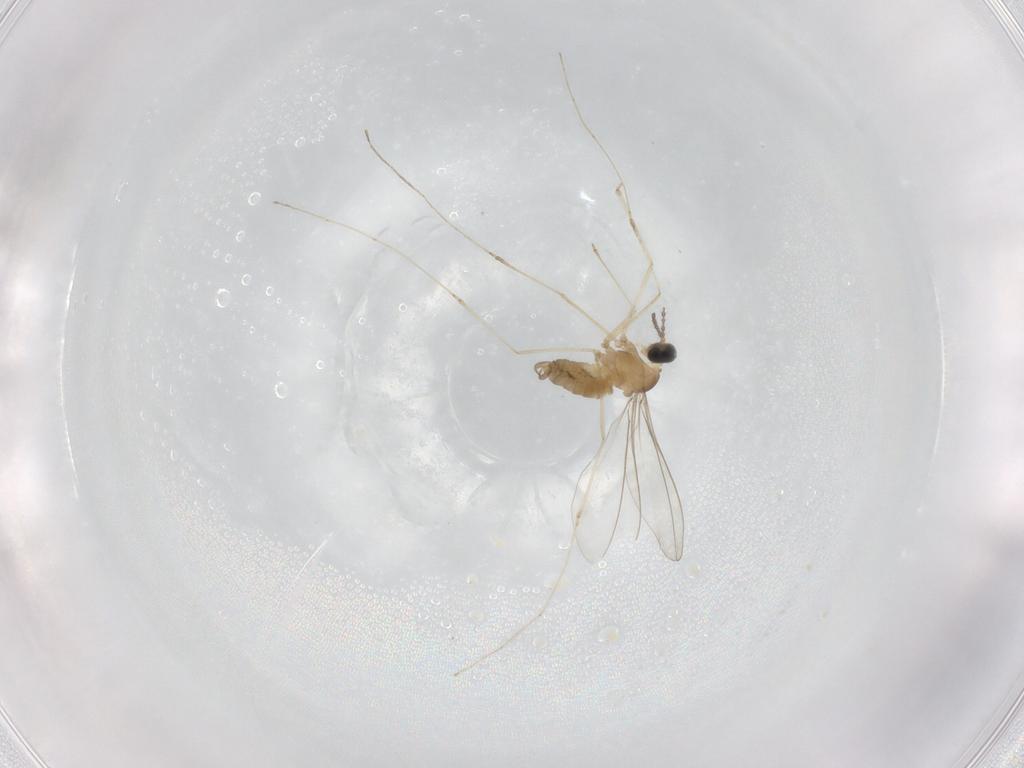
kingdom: Animalia
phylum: Arthropoda
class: Insecta
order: Diptera
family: Cecidomyiidae
